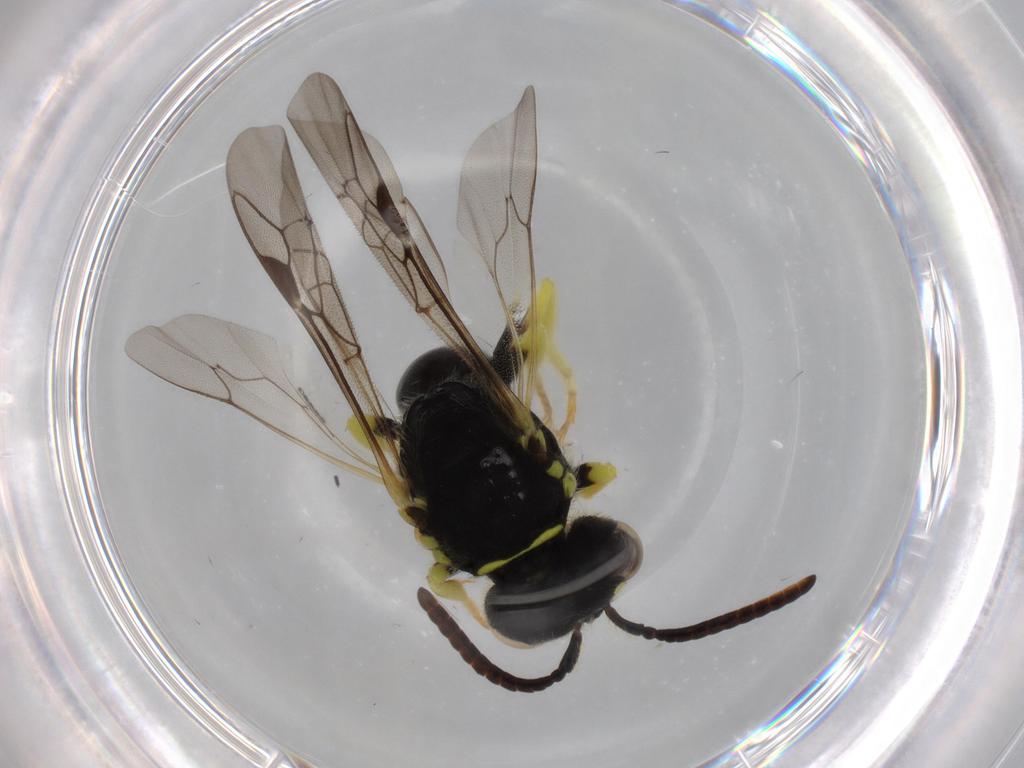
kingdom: Animalia
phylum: Arthropoda
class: Insecta
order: Hymenoptera
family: Colletidae
